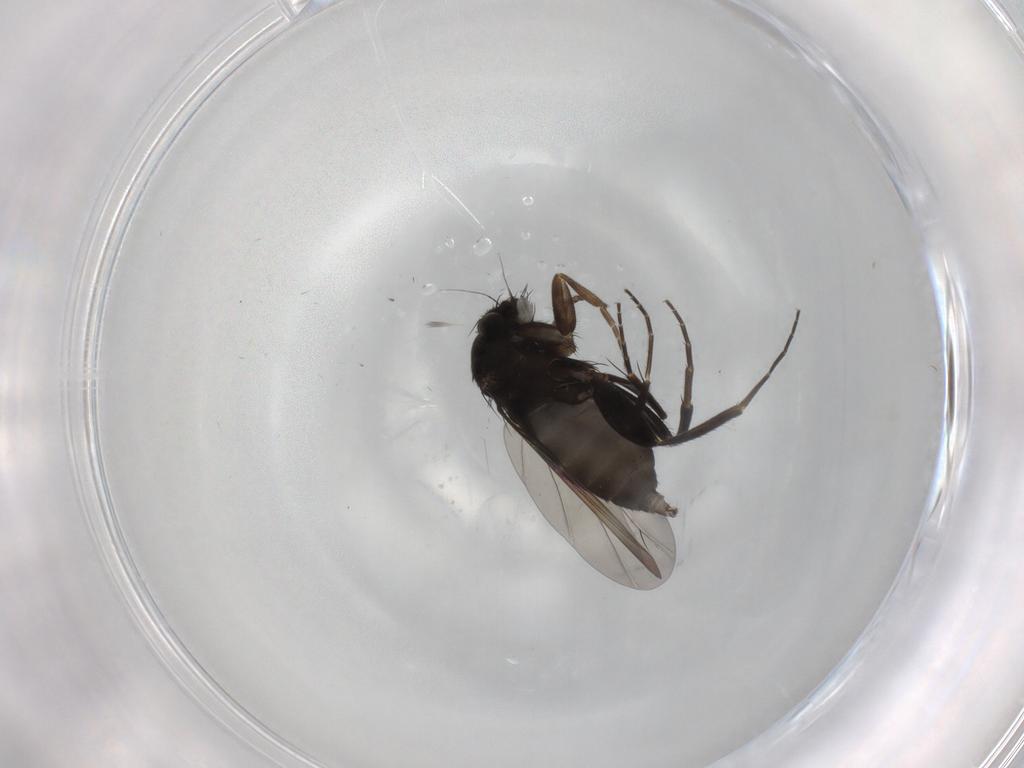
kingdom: Animalia
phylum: Arthropoda
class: Insecta
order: Diptera
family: Phoridae
